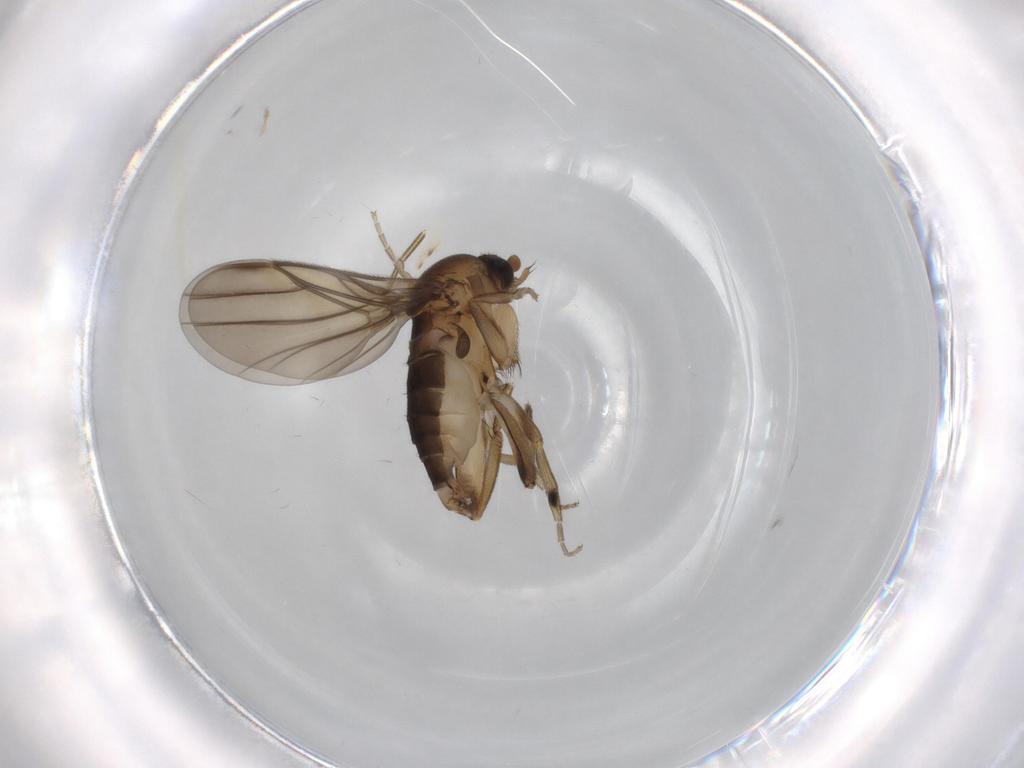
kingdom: Animalia
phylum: Arthropoda
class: Insecta
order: Diptera
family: Phoridae
